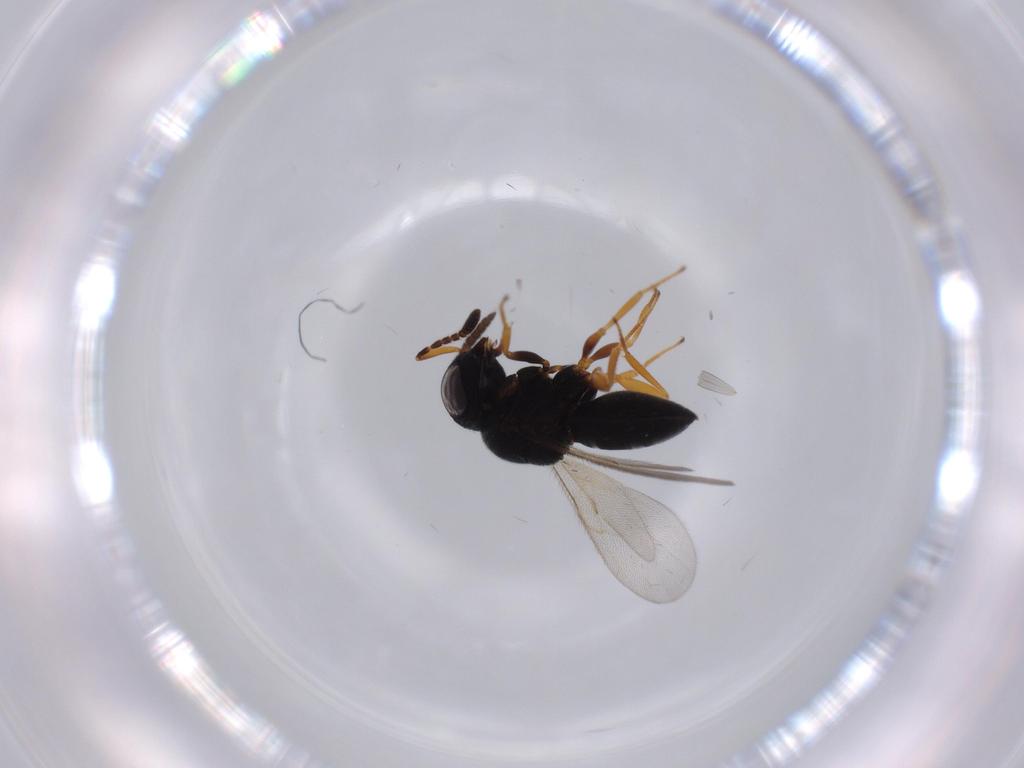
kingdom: Animalia
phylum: Arthropoda
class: Insecta
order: Hymenoptera
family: Scelionidae
